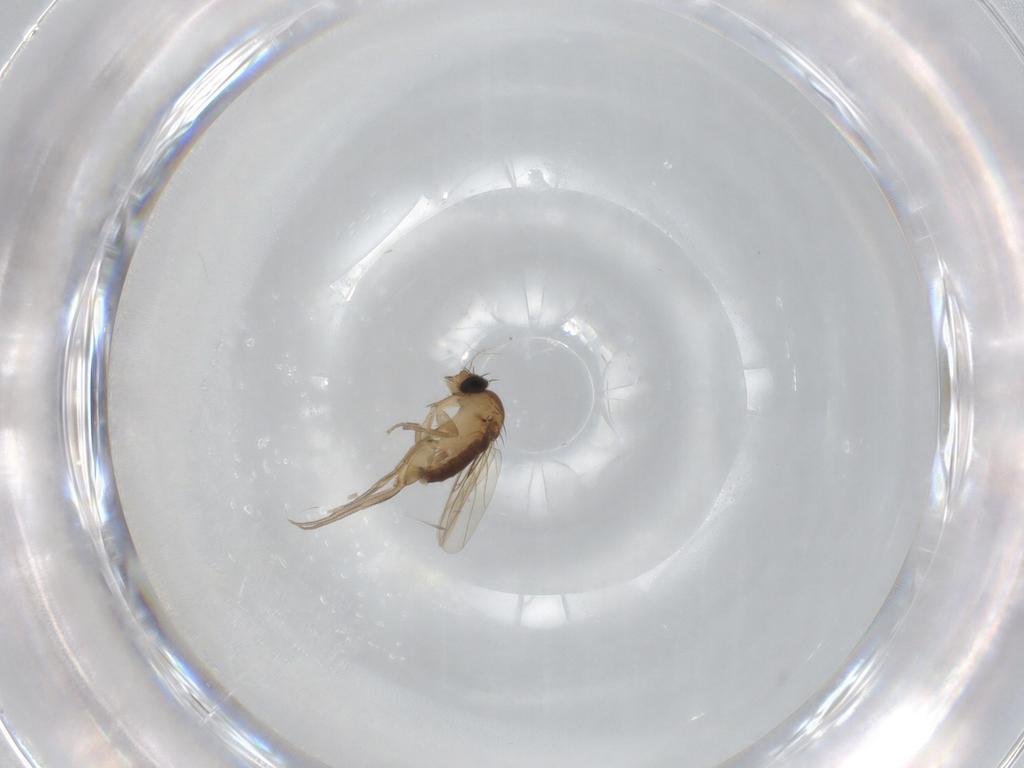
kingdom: Animalia
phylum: Arthropoda
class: Insecta
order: Diptera
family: Phoridae
